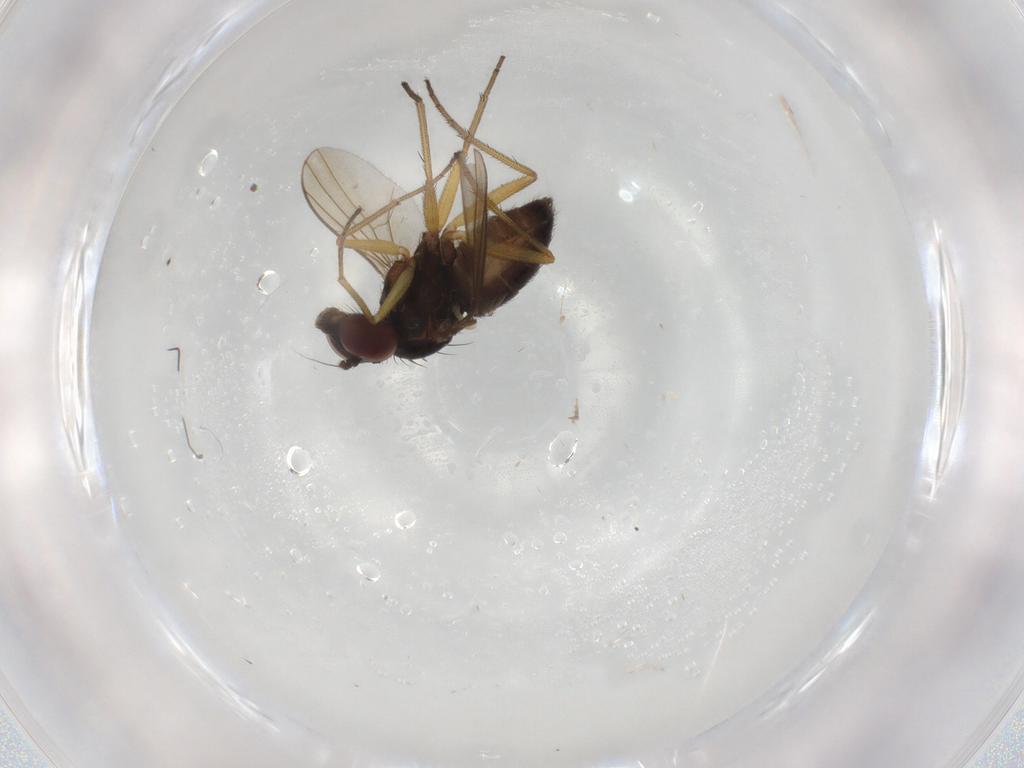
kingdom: Animalia
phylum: Arthropoda
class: Insecta
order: Diptera
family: Dolichopodidae
